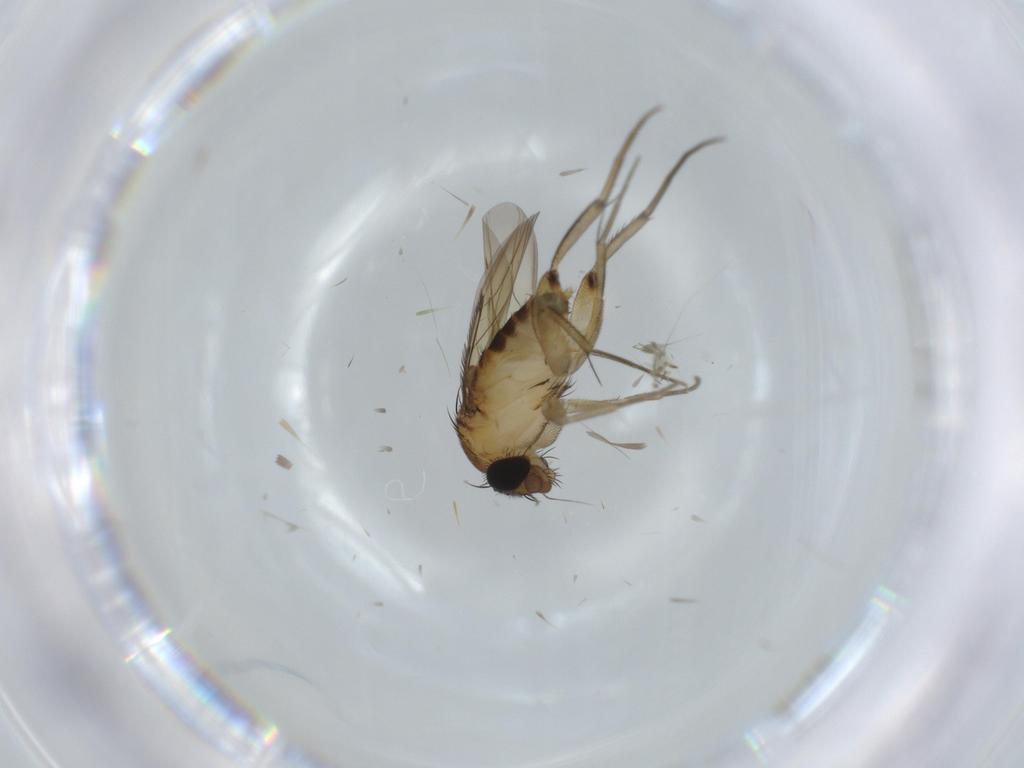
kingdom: Animalia
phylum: Arthropoda
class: Insecta
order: Diptera
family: Phoridae
